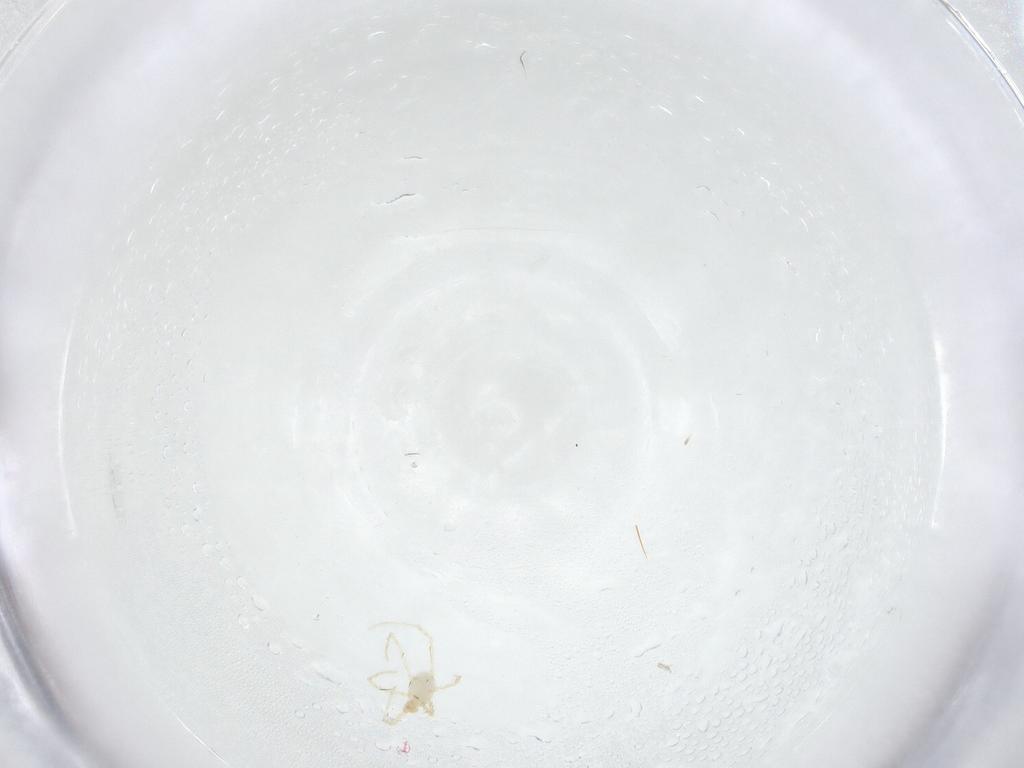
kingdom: Animalia
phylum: Arthropoda
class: Arachnida
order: Trombidiformes
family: Erythraeidae
